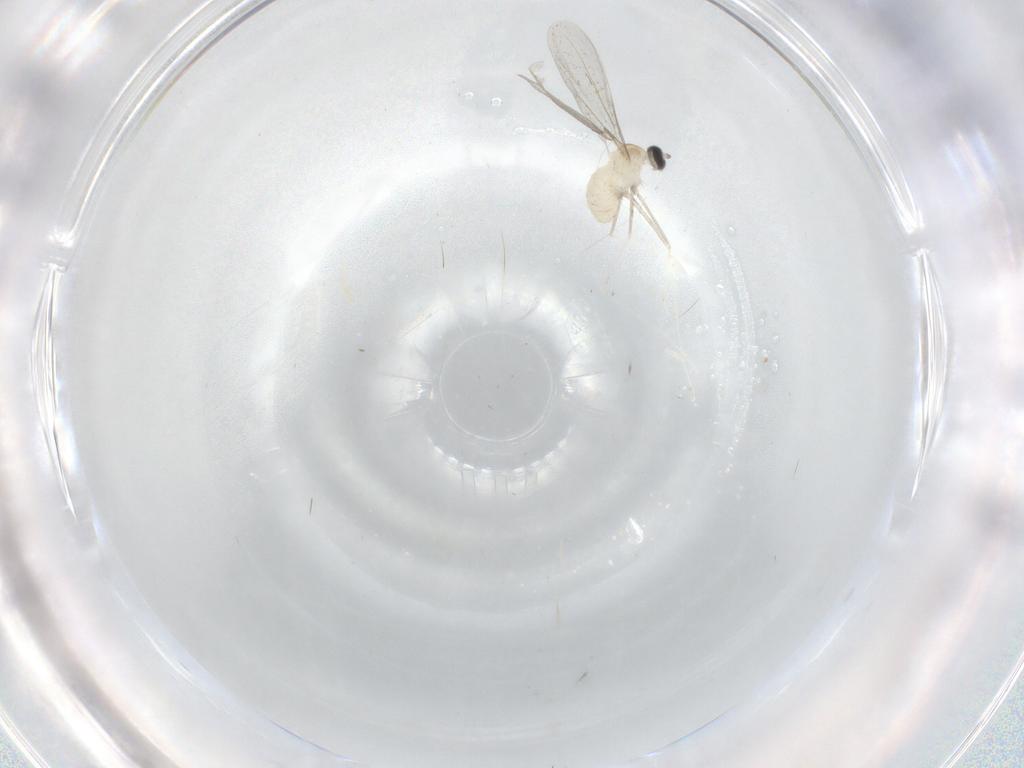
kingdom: Animalia
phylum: Arthropoda
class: Insecta
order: Diptera
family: Cecidomyiidae
